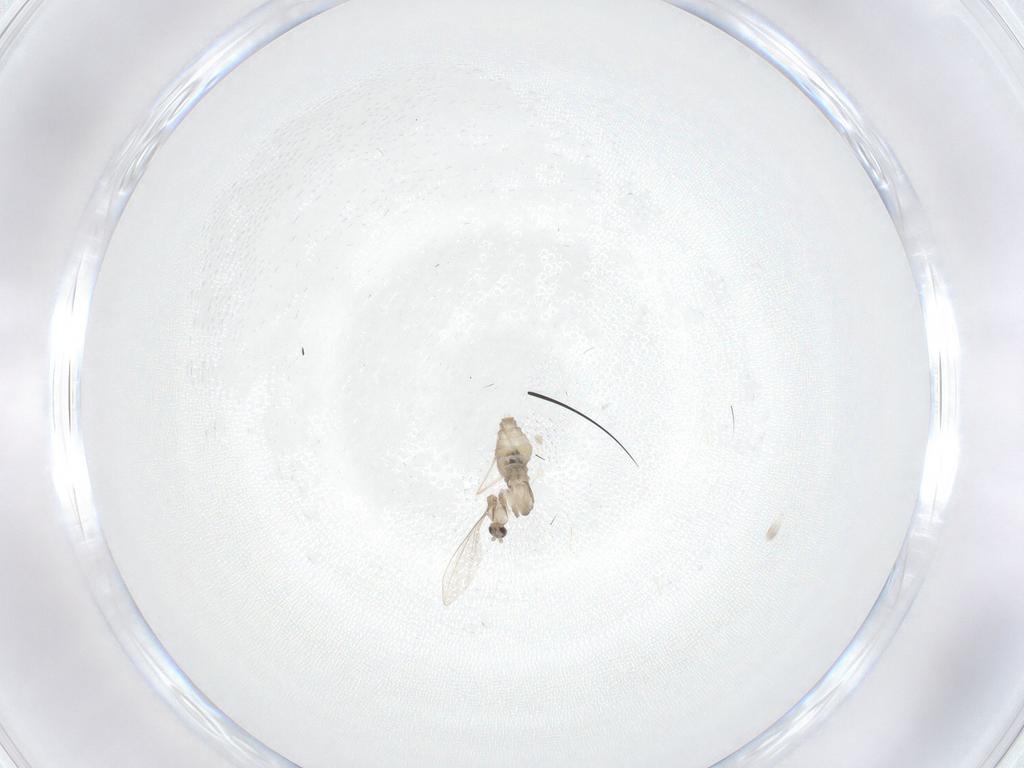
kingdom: Animalia
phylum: Arthropoda
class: Insecta
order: Diptera
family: Cecidomyiidae
